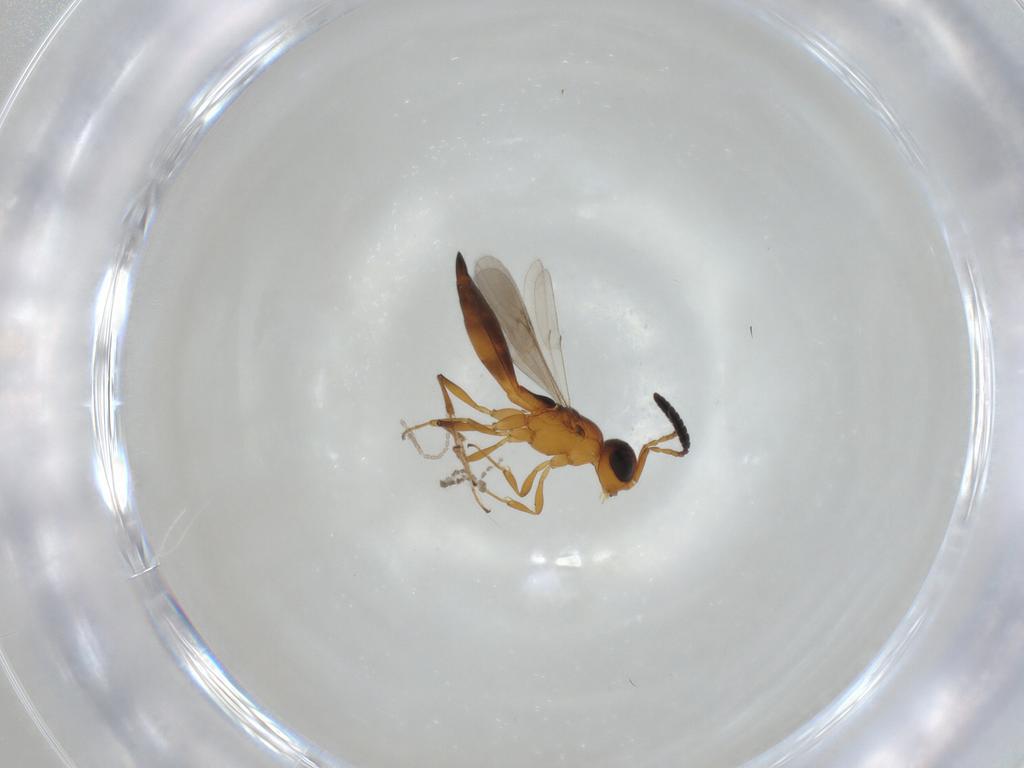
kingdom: Animalia
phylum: Arthropoda
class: Insecta
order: Hymenoptera
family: Scelionidae
